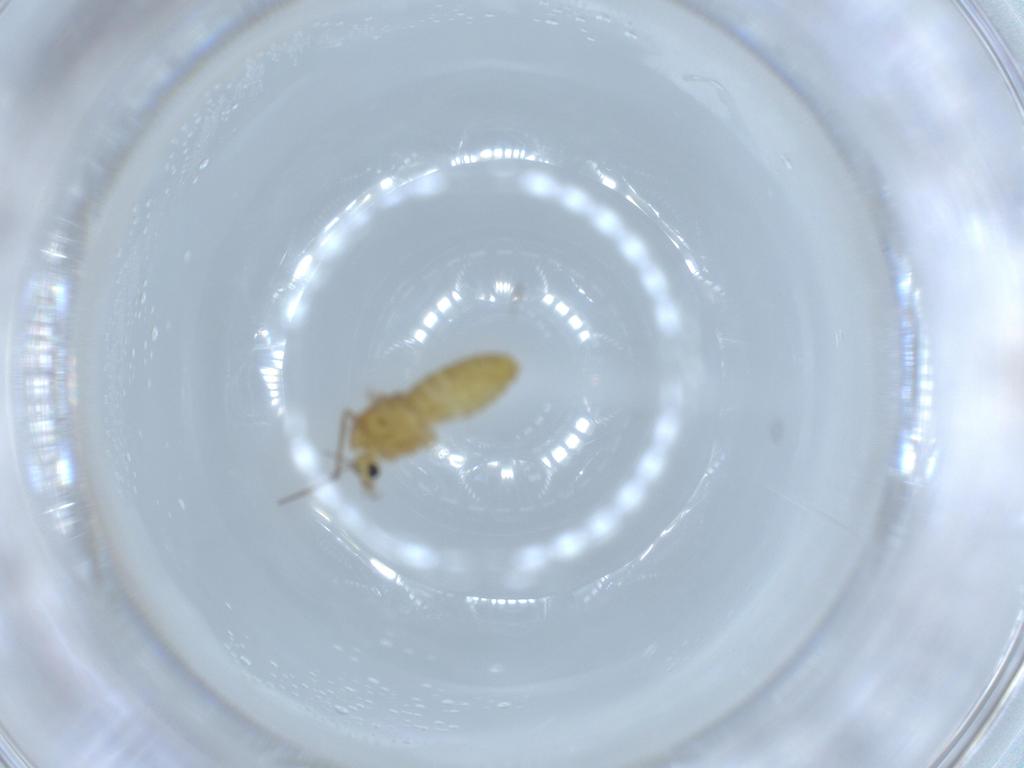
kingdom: Animalia
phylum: Arthropoda
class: Insecta
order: Diptera
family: Chironomidae
